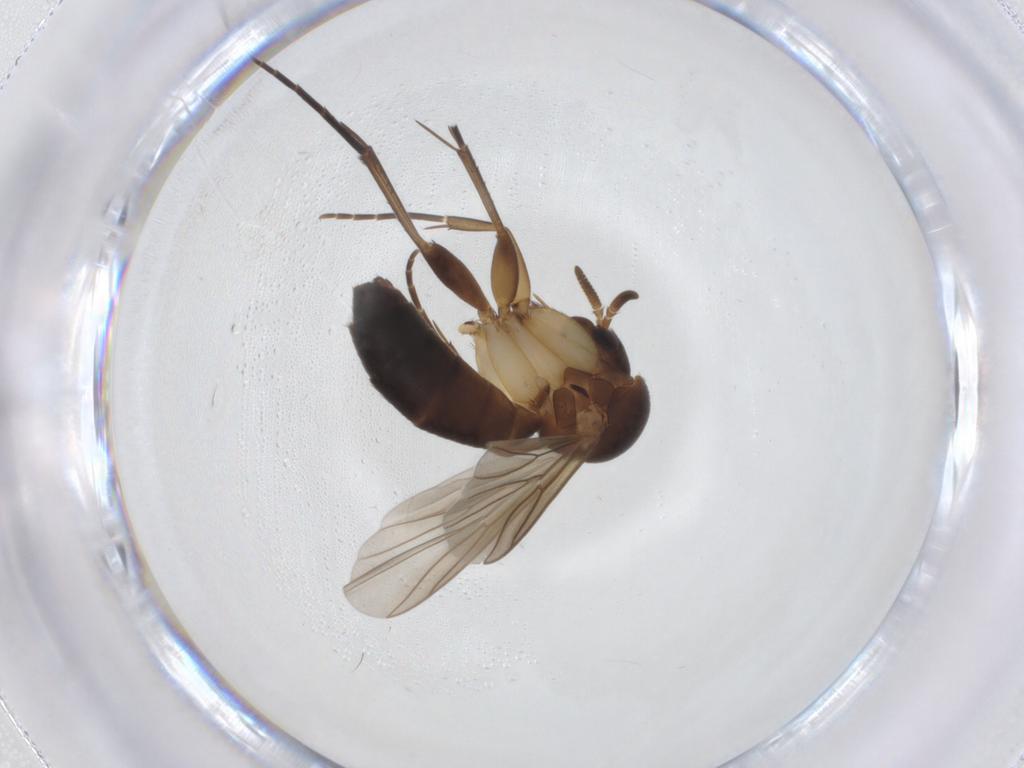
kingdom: Animalia
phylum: Arthropoda
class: Insecta
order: Diptera
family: Mycetophilidae
